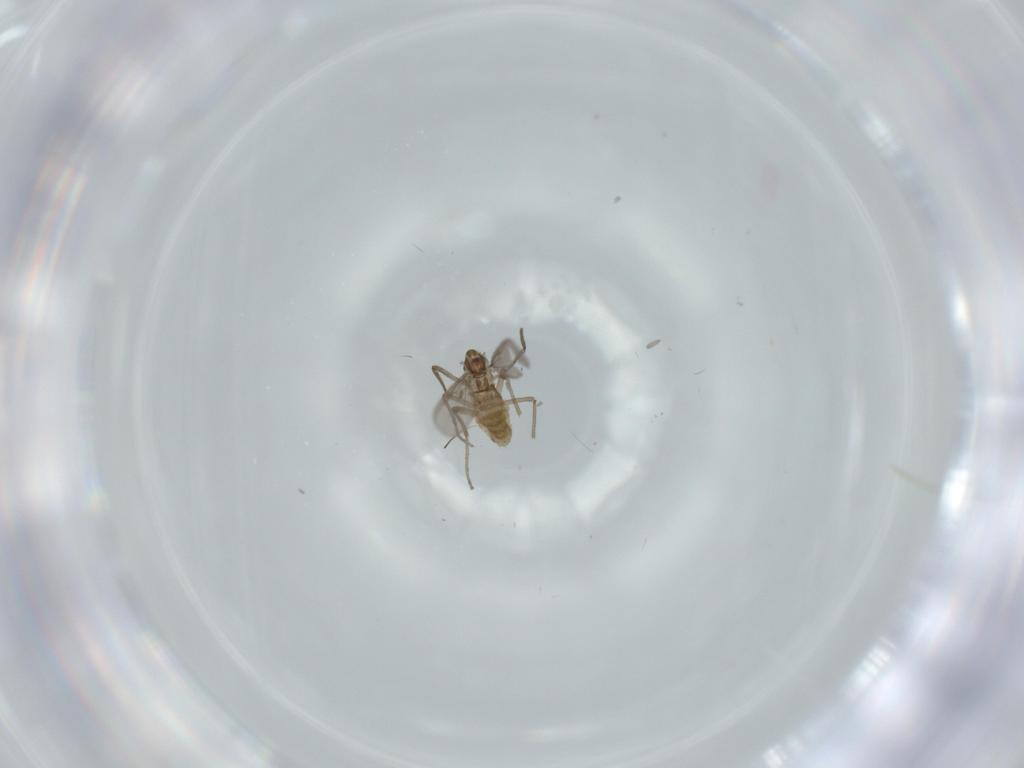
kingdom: Animalia
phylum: Arthropoda
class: Insecta
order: Diptera
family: Chironomidae
